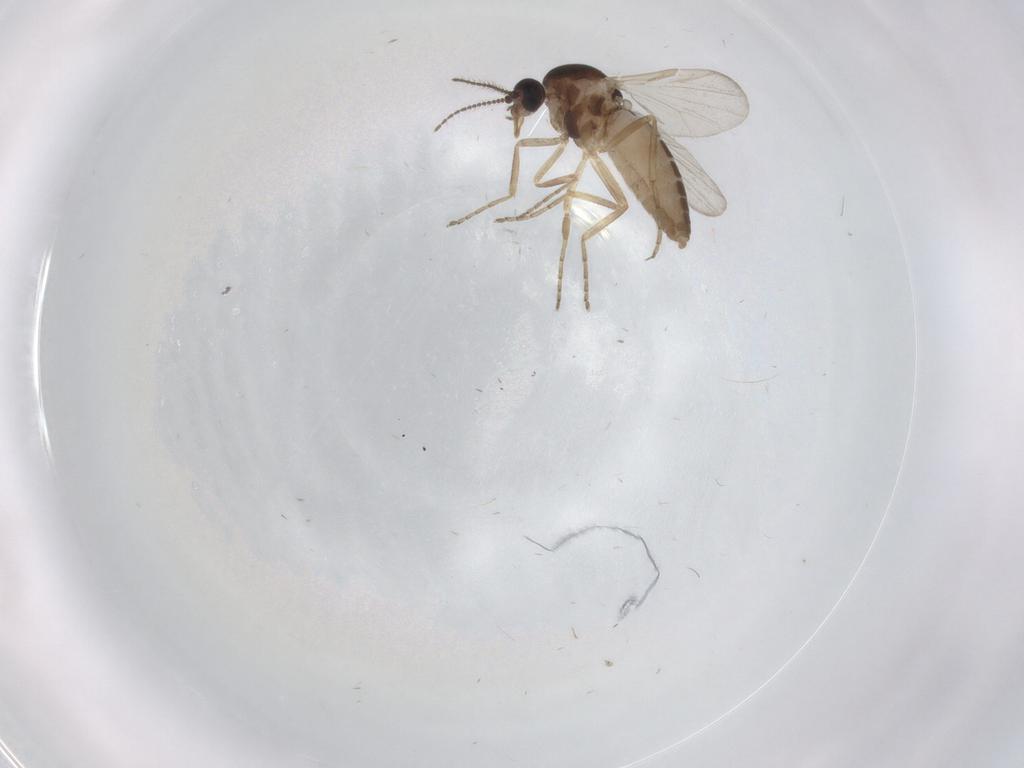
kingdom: Animalia
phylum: Arthropoda
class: Insecta
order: Diptera
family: Ceratopogonidae
